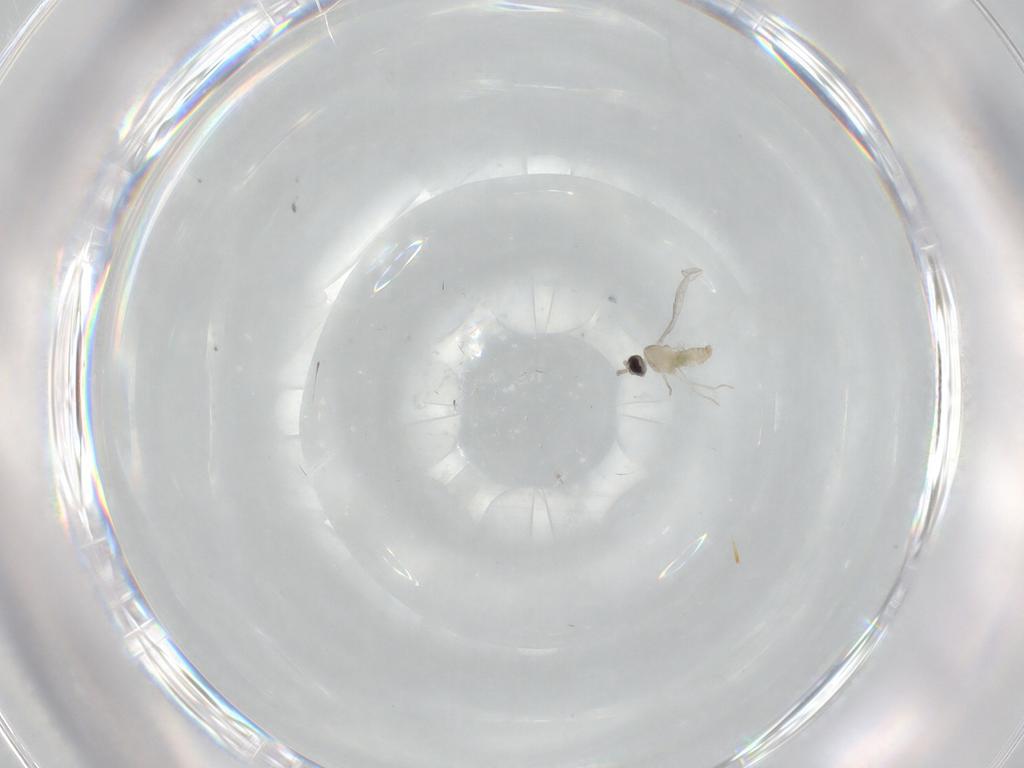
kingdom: Animalia
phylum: Arthropoda
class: Insecta
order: Diptera
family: Cecidomyiidae
